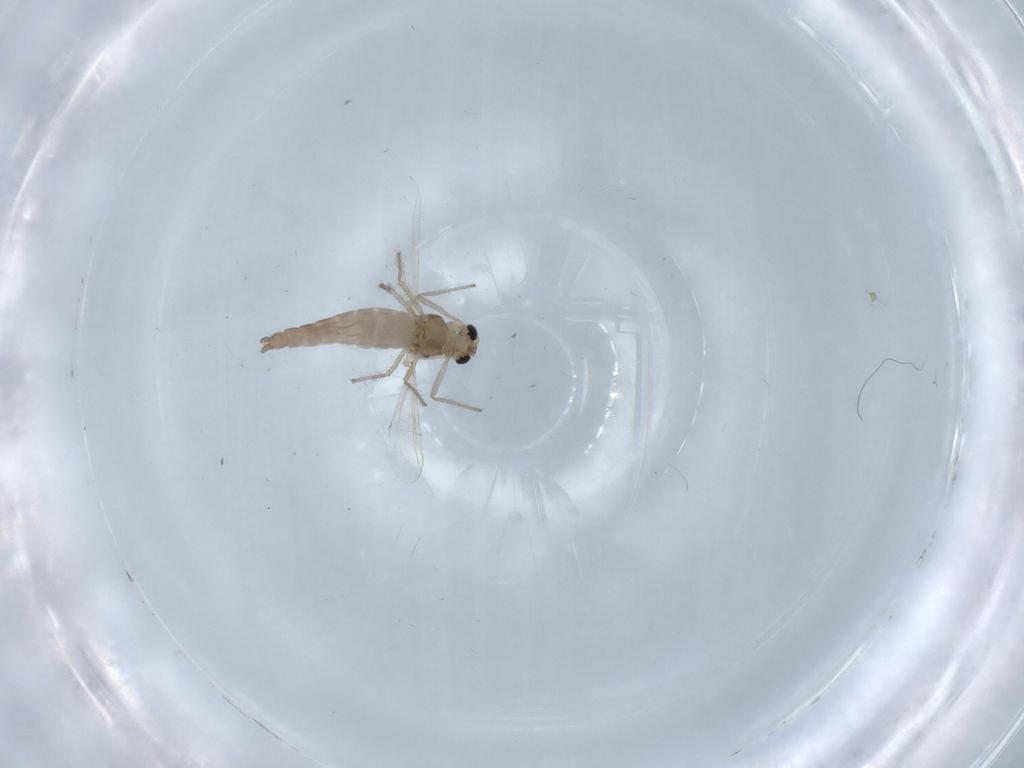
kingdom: Animalia
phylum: Arthropoda
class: Insecta
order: Diptera
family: Chironomidae
